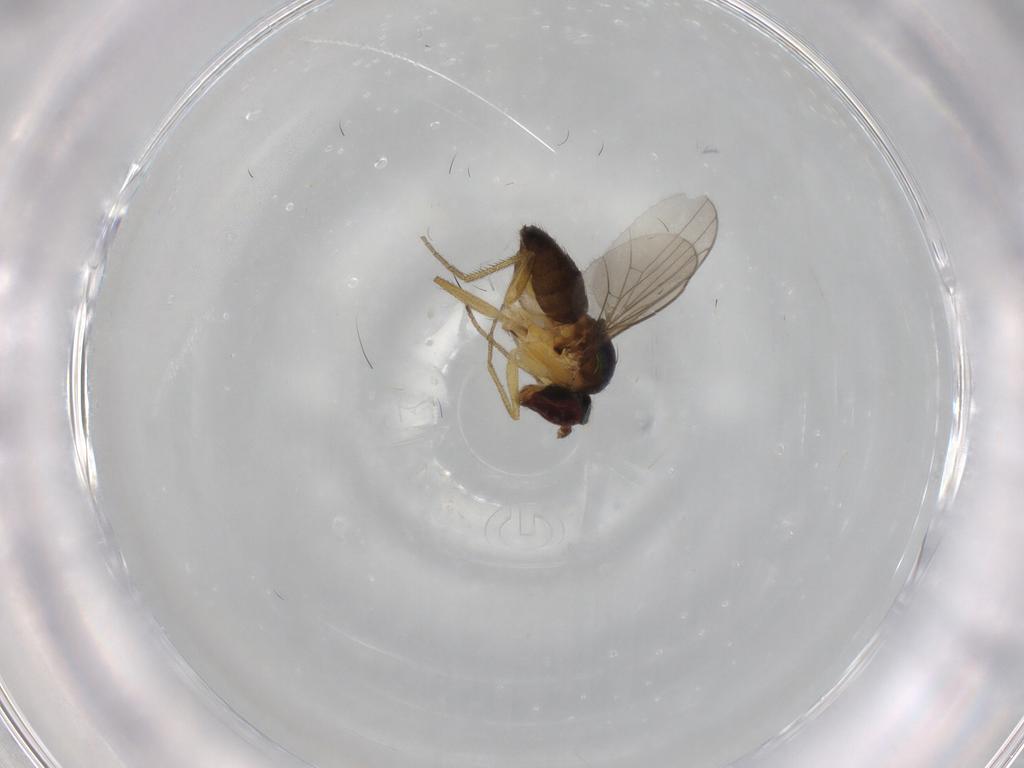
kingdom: Animalia
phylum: Arthropoda
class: Insecta
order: Diptera
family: Dolichopodidae
